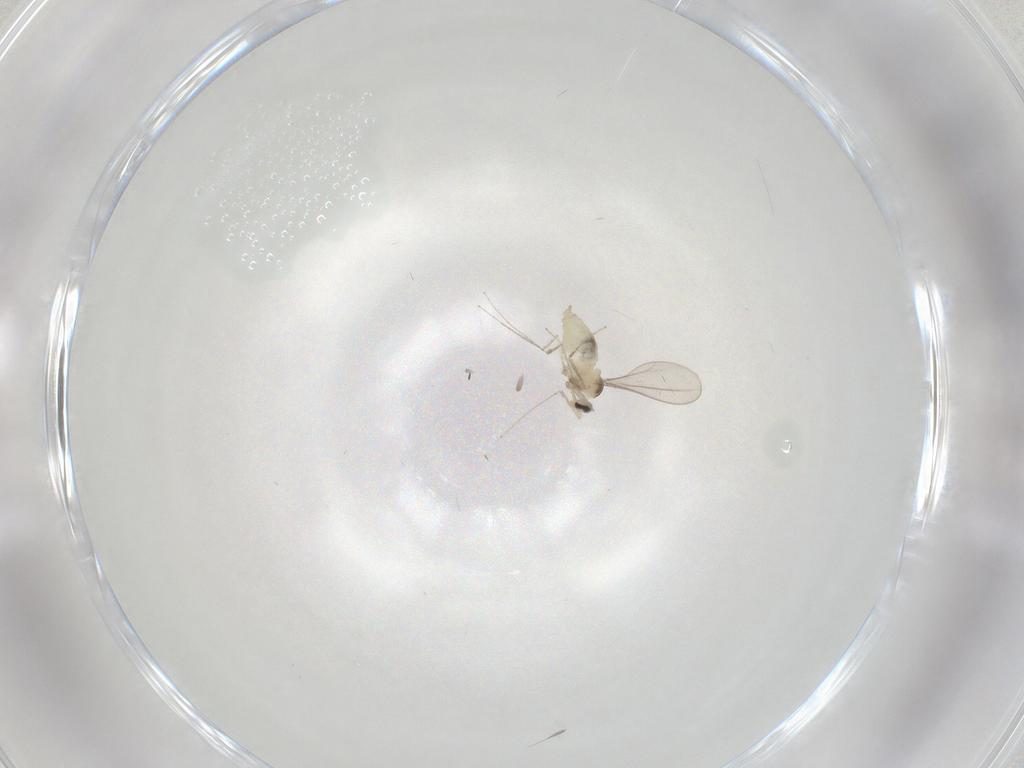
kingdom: Animalia
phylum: Arthropoda
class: Insecta
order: Diptera
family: Cecidomyiidae
